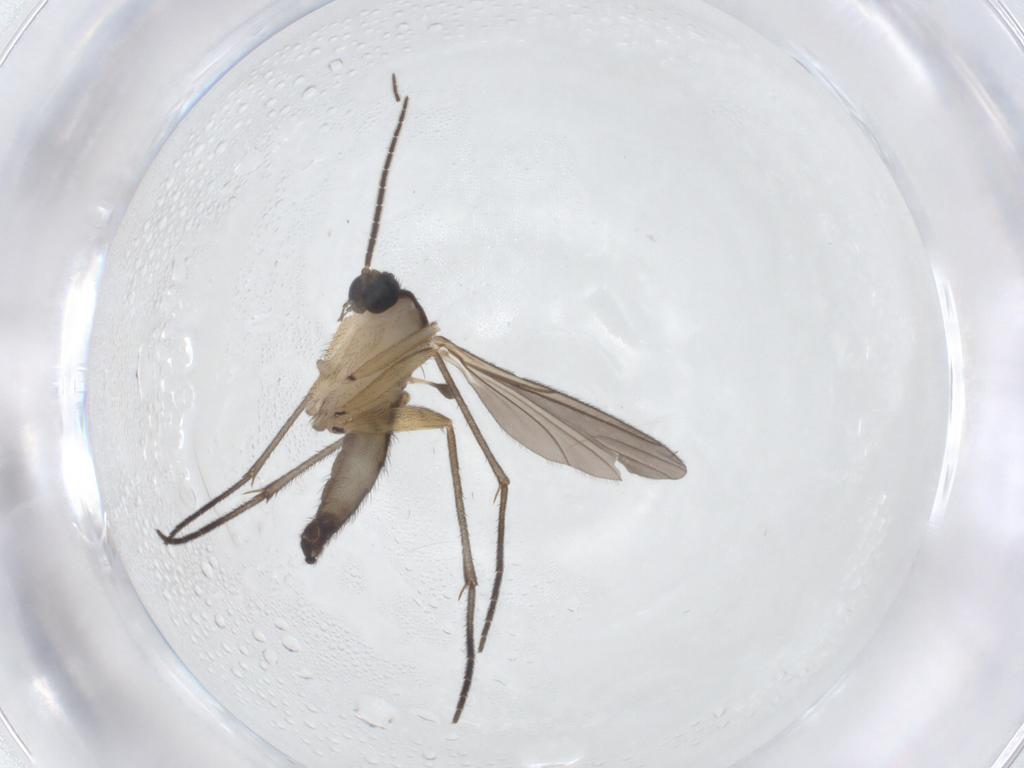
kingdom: Animalia
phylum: Arthropoda
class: Insecta
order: Diptera
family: Sciaridae
